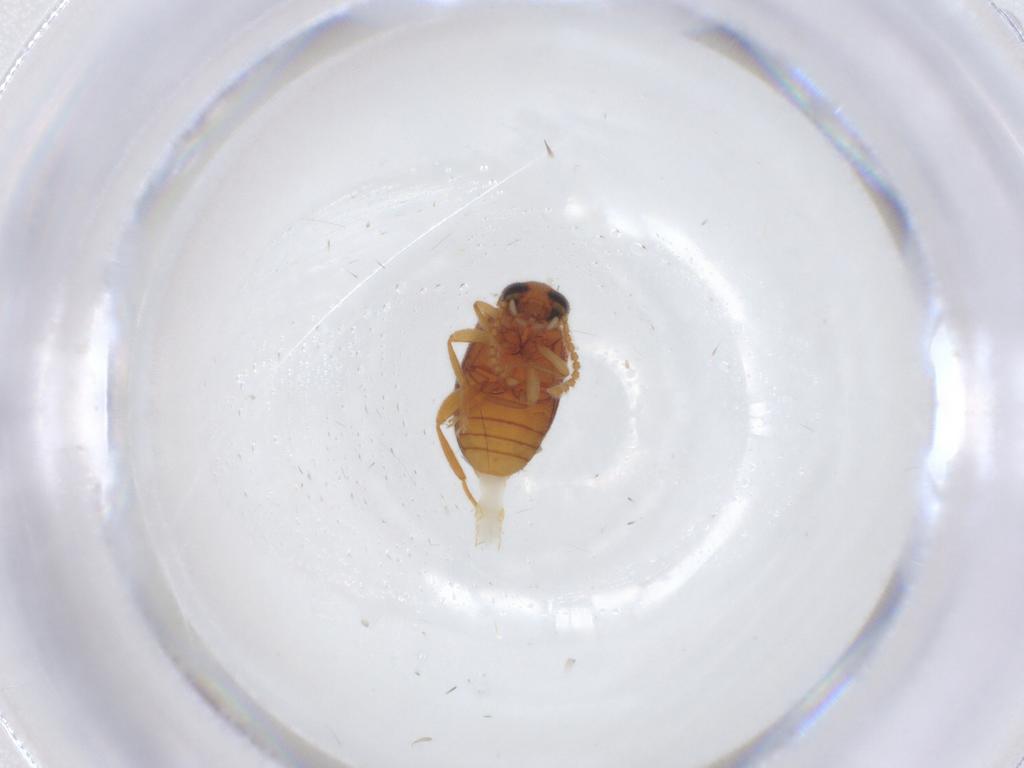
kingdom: Animalia
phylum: Arthropoda
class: Insecta
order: Coleoptera
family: Aderidae
